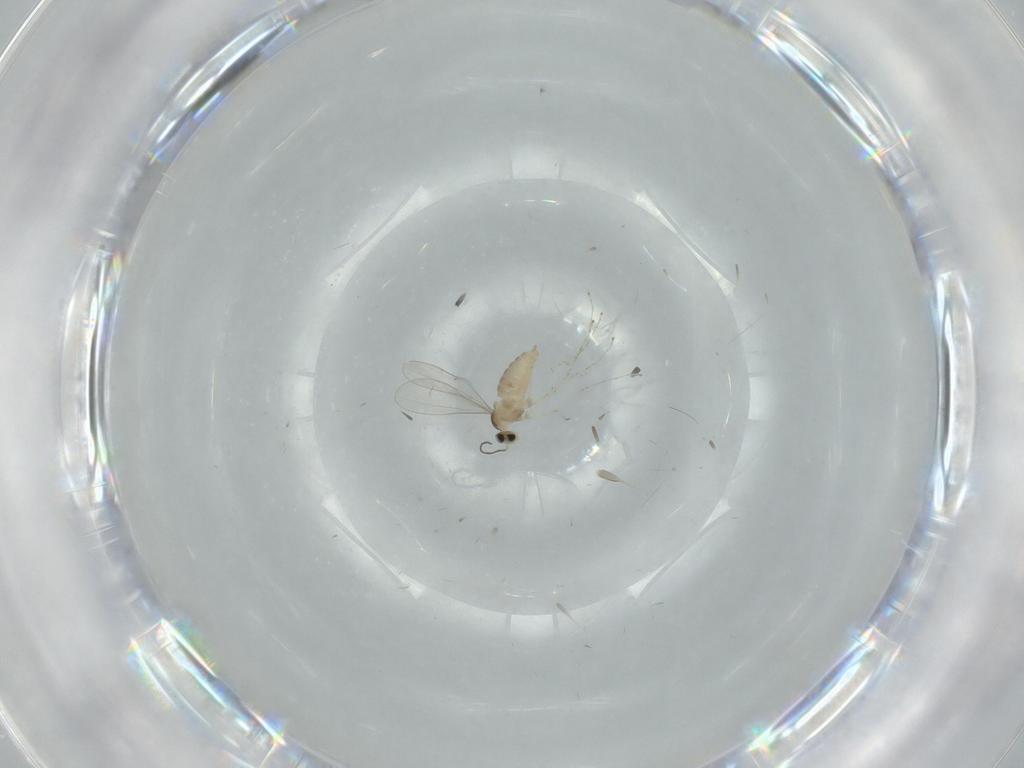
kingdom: Animalia
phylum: Arthropoda
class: Insecta
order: Diptera
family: Cecidomyiidae
